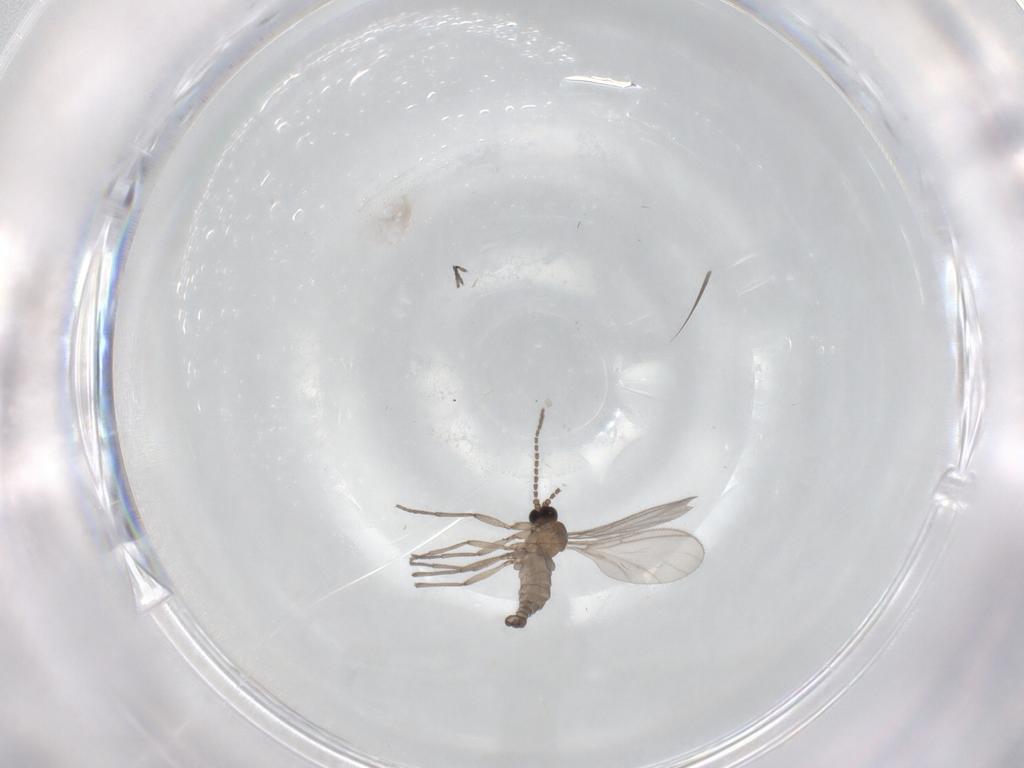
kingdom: Animalia
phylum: Arthropoda
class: Insecta
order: Diptera
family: Sciaridae
